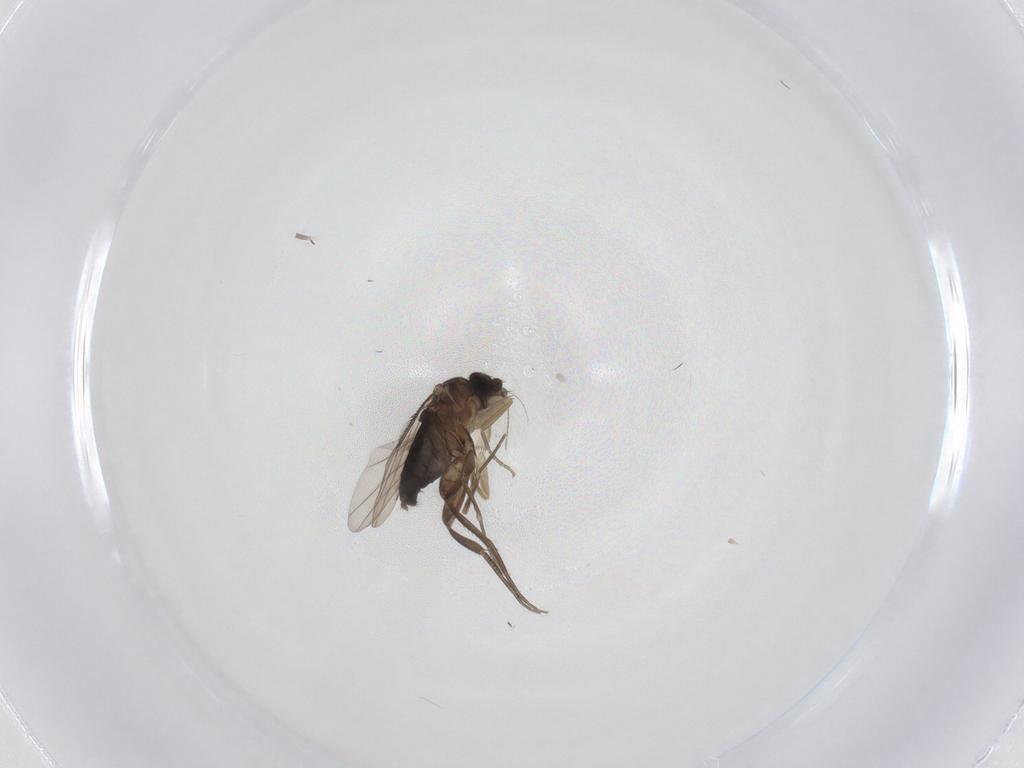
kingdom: Animalia
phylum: Arthropoda
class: Insecta
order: Diptera
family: Phoridae
